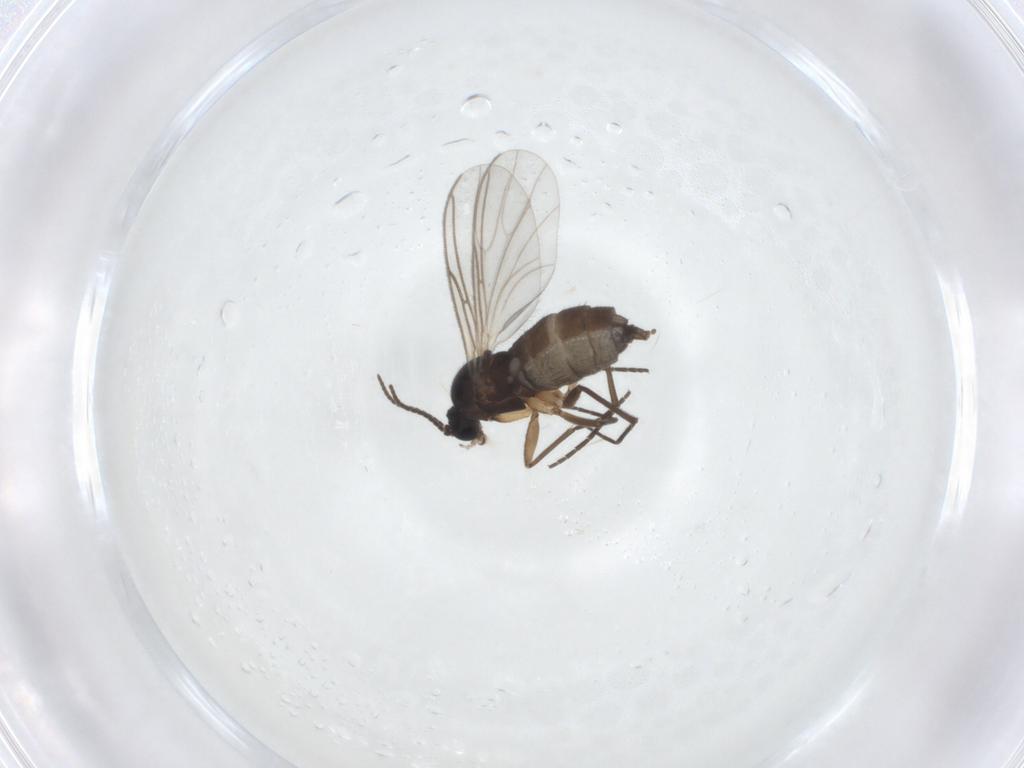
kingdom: Animalia
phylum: Arthropoda
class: Insecta
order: Diptera
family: Sciaridae
